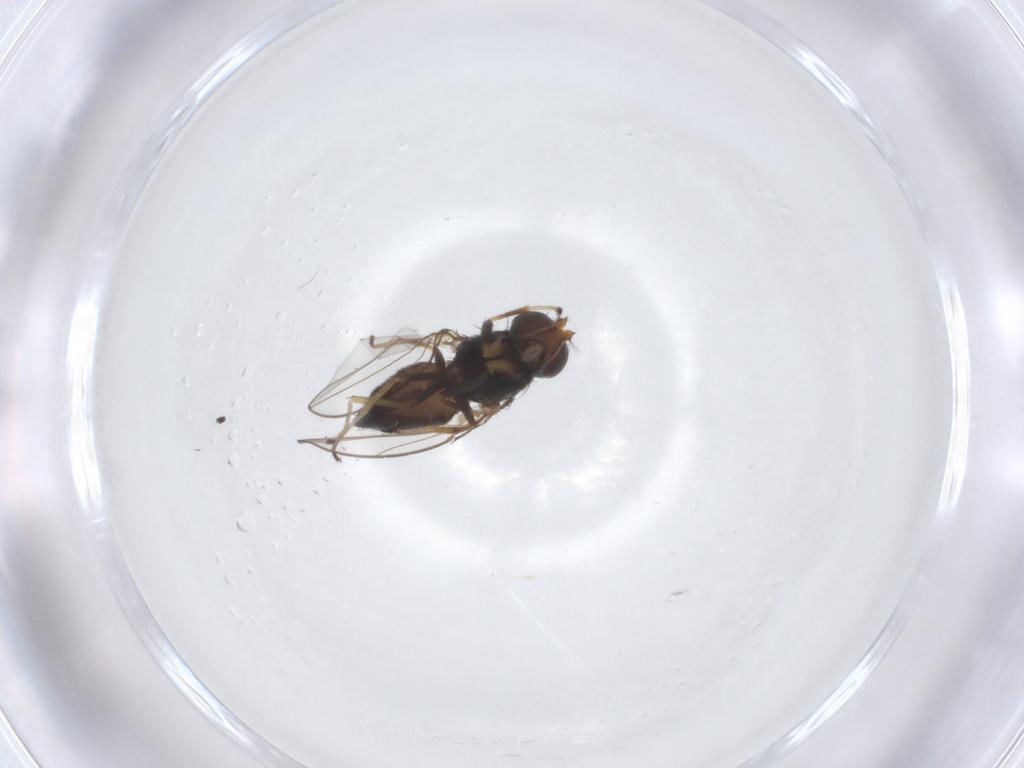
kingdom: Animalia
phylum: Arthropoda
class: Insecta
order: Diptera
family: Ephydridae
